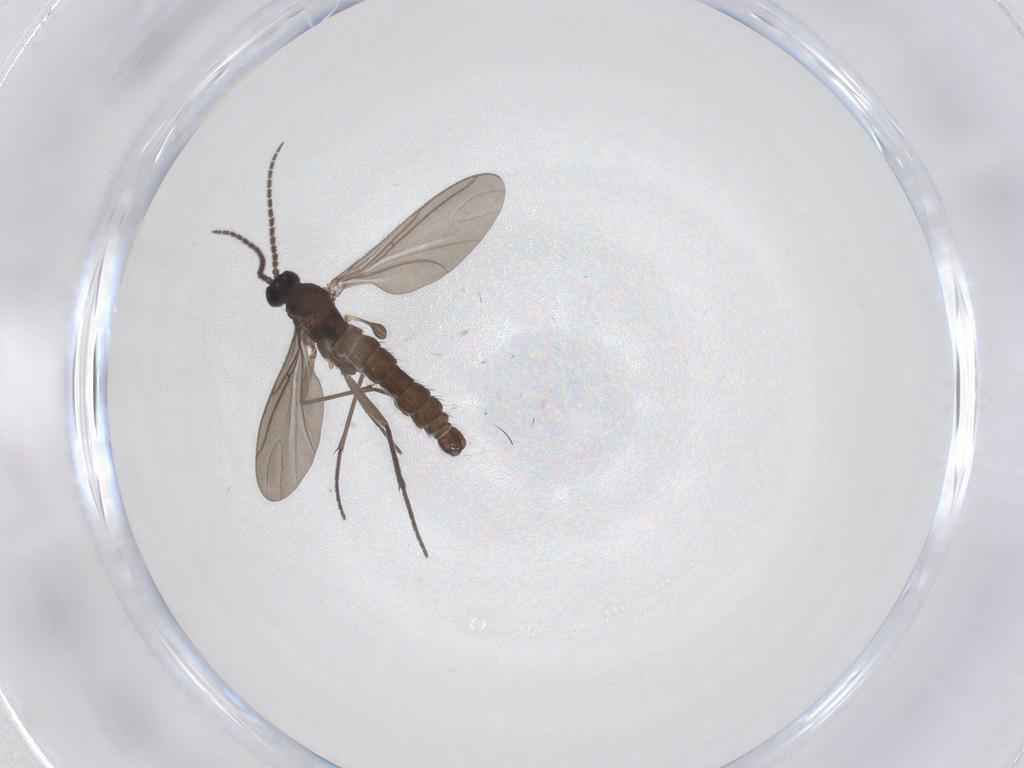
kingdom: Animalia
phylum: Arthropoda
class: Insecta
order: Diptera
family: Sciaridae
